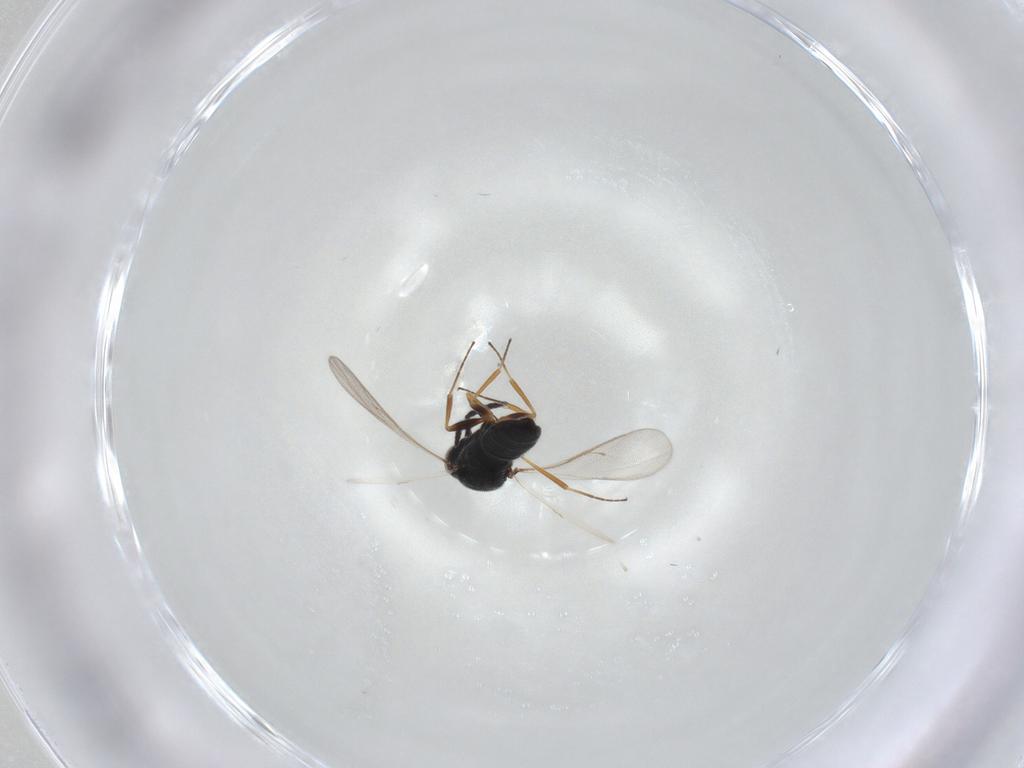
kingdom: Animalia
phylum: Arthropoda
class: Insecta
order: Hymenoptera
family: Scelionidae
